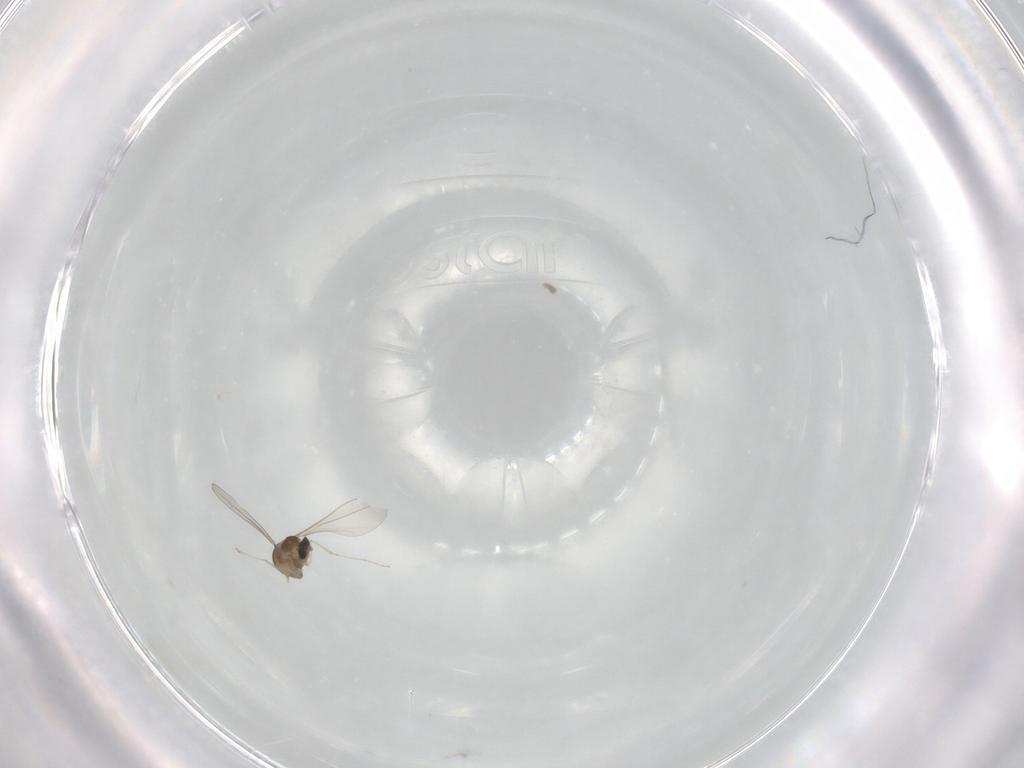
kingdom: Animalia
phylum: Arthropoda
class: Insecta
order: Diptera
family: Cecidomyiidae
